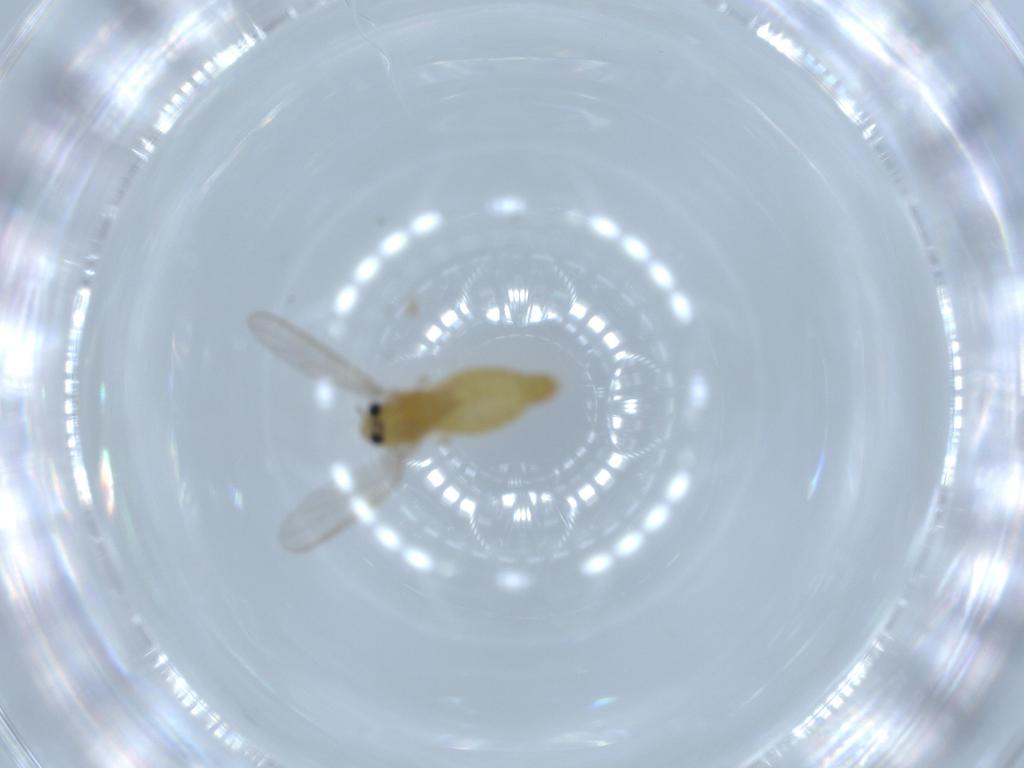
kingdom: Animalia
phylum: Arthropoda
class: Insecta
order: Diptera
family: Chironomidae
